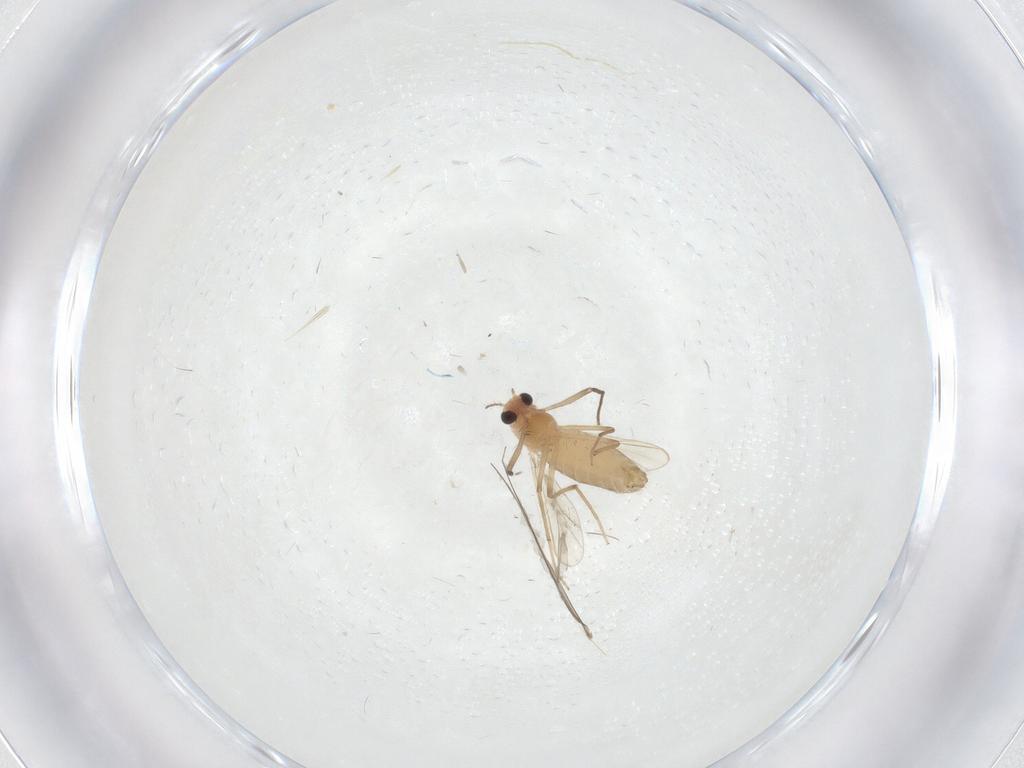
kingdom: Animalia
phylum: Arthropoda
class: Insecta
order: Diptera
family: Chironomidae
